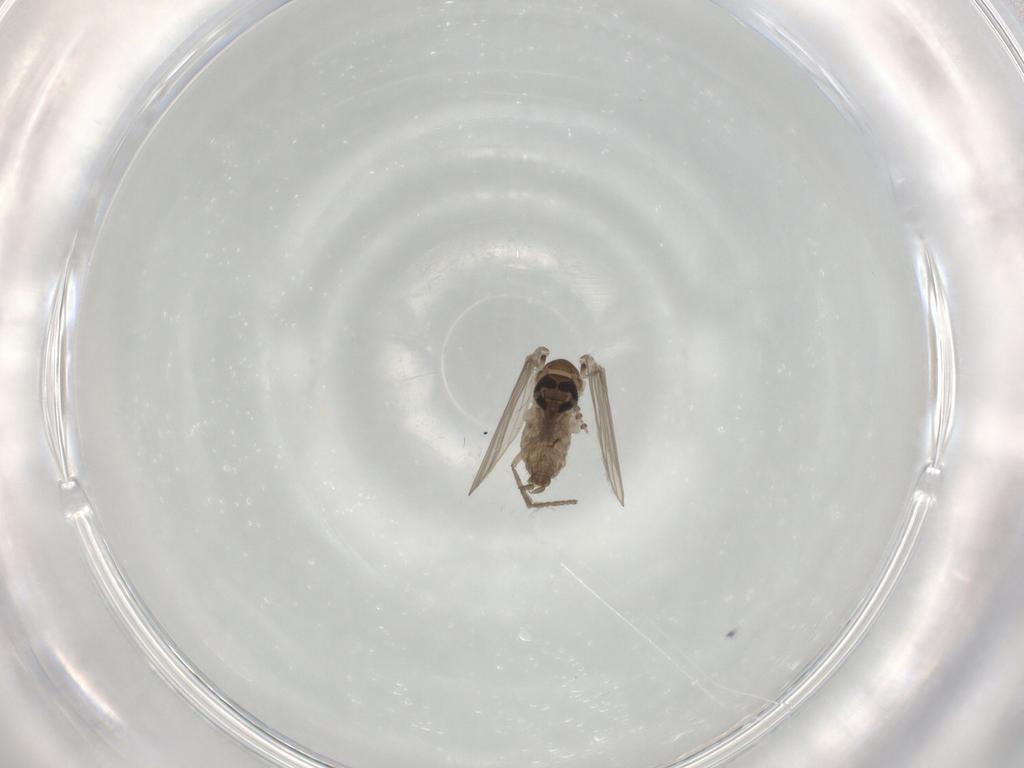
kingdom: Animalia
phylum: Arthropoda
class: Insecta
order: Diptera
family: Psychodidae
